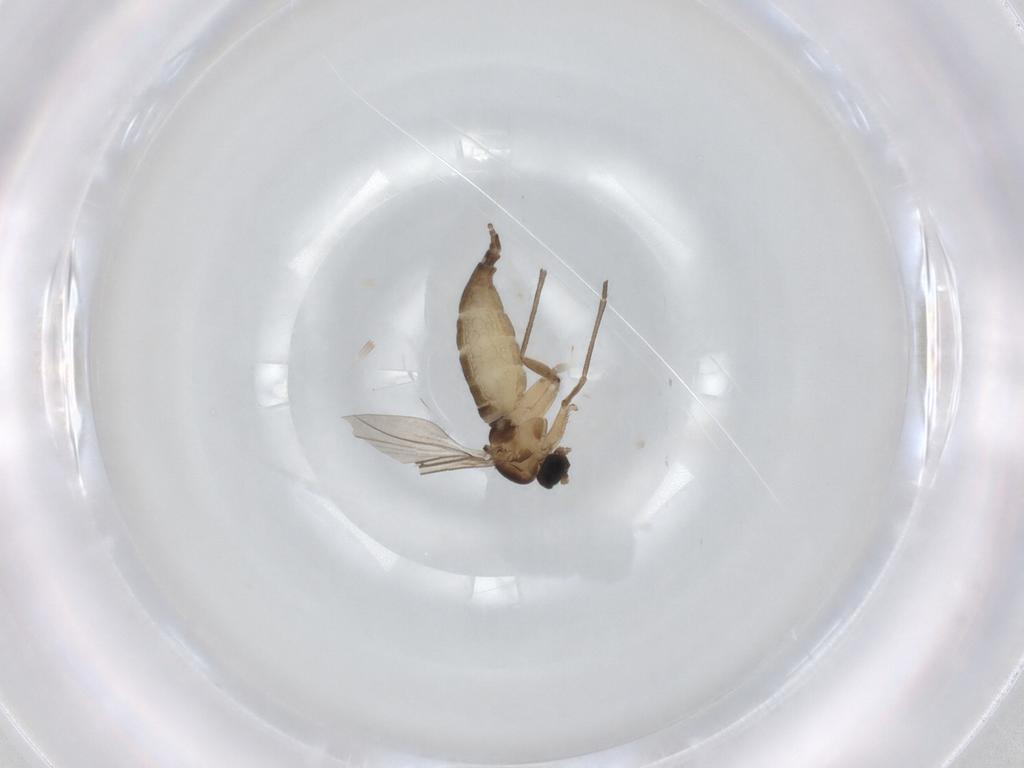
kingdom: Animalia
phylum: Arthropoda
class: Insecta
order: Diptera
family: Sciaridae
